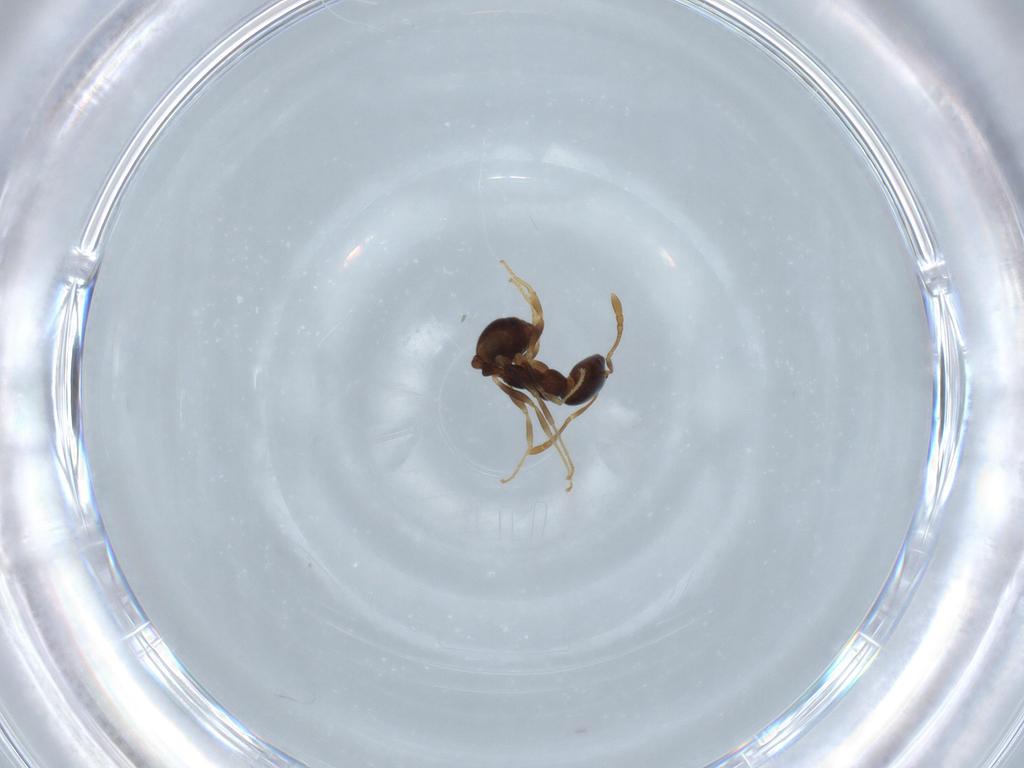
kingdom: Animalia
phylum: Arthropoda
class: Insecta
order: Hymenoptera
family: Formicidae
